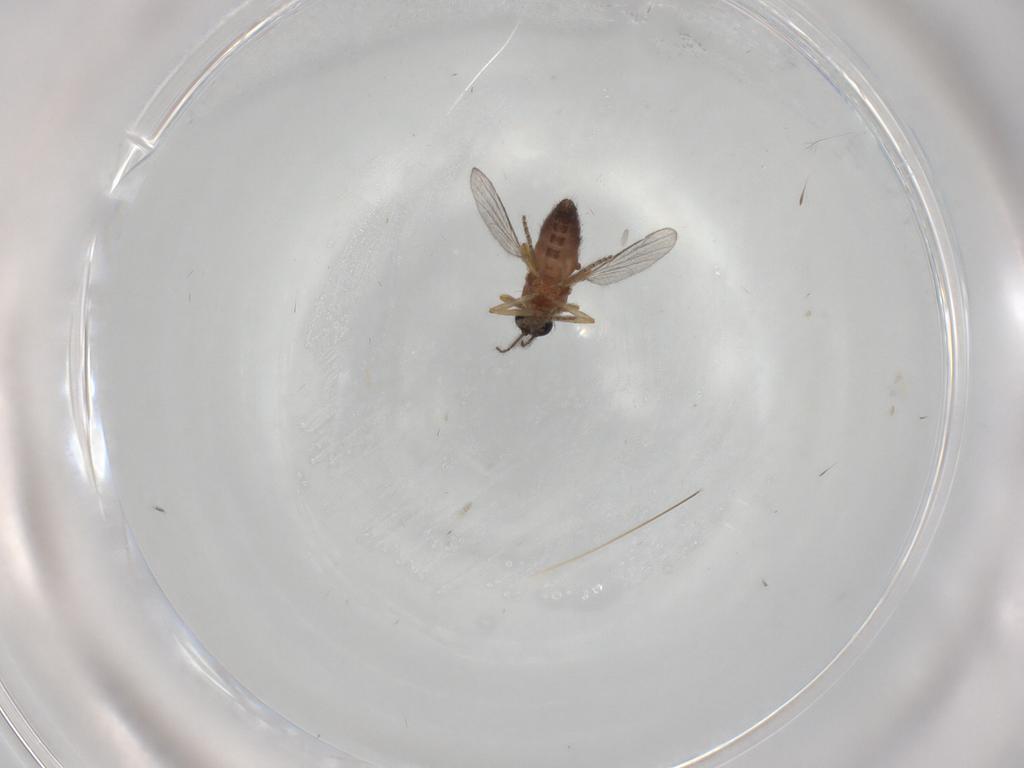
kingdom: Animalia
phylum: Arthropoda
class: Insecta
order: Diptera
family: Ceratopogonidae
